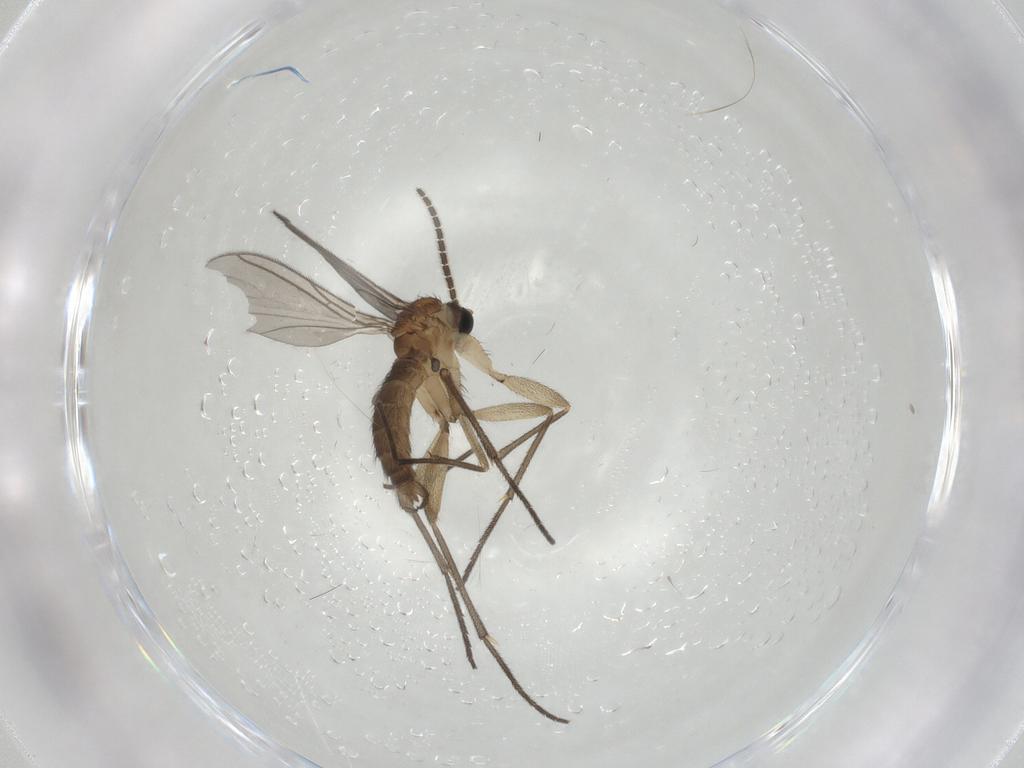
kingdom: Animalia
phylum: Arthropoda
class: Insecta
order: Diptera
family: Sciaridae
